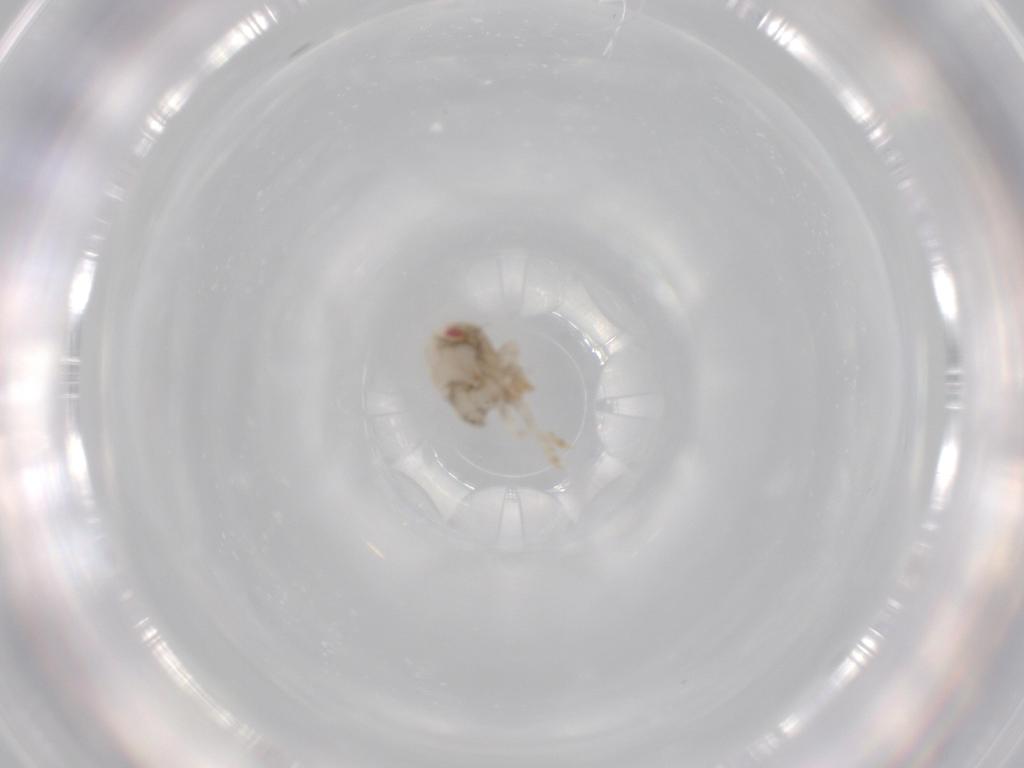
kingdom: Animalia
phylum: Arthropoda
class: Insecta
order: Hemiptera
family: Acanaloniidae
